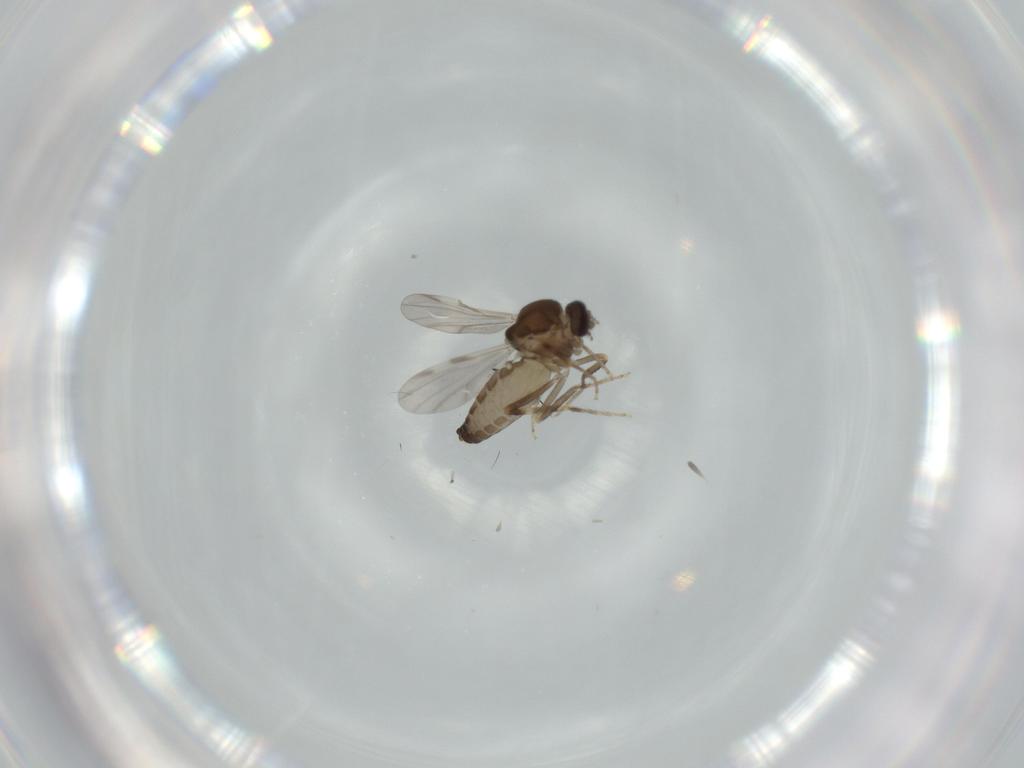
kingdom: Animalia
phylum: Arthropoda
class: Insecta
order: Diptera
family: Ceratopogonidae
